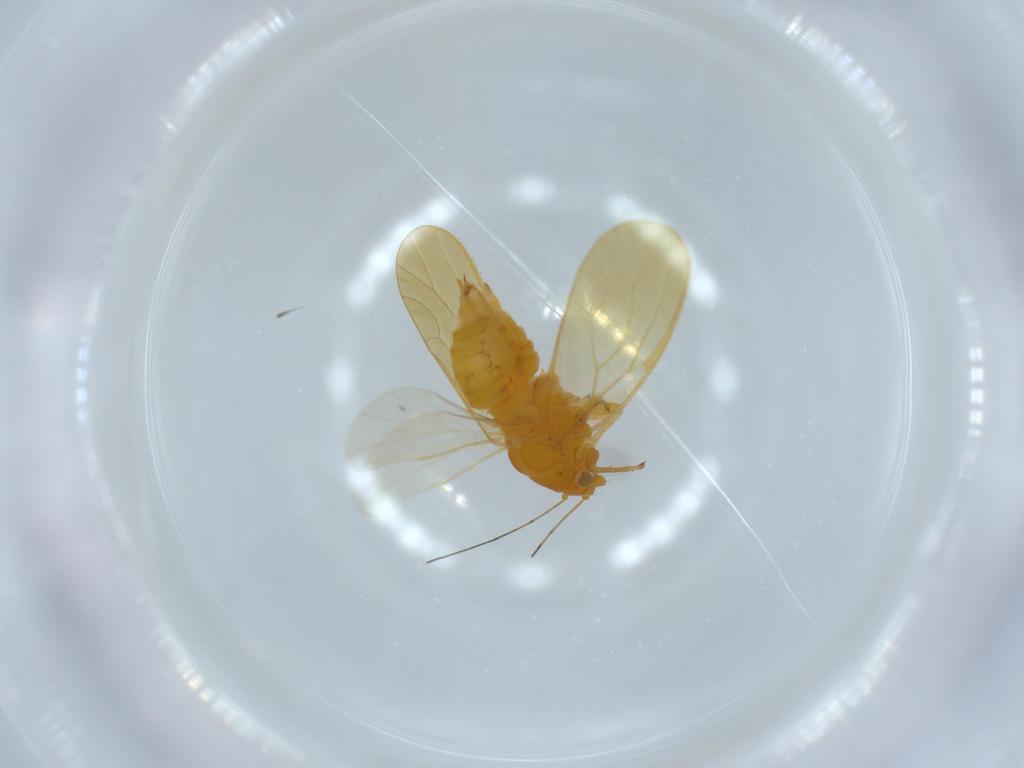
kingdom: Animalia
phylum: Arthropoda
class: Insecta
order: Hemiptera
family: Psyllidae
